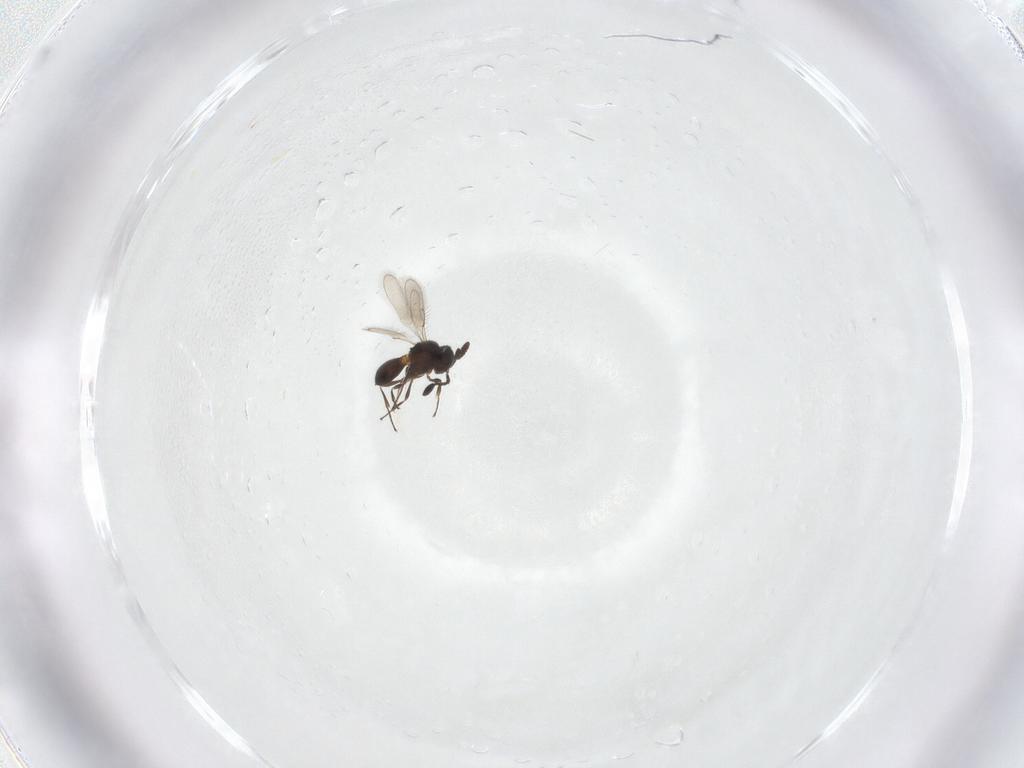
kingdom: Animalia
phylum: Arthropoda
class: Insecta
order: Hymenoptera
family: Scelionidae
